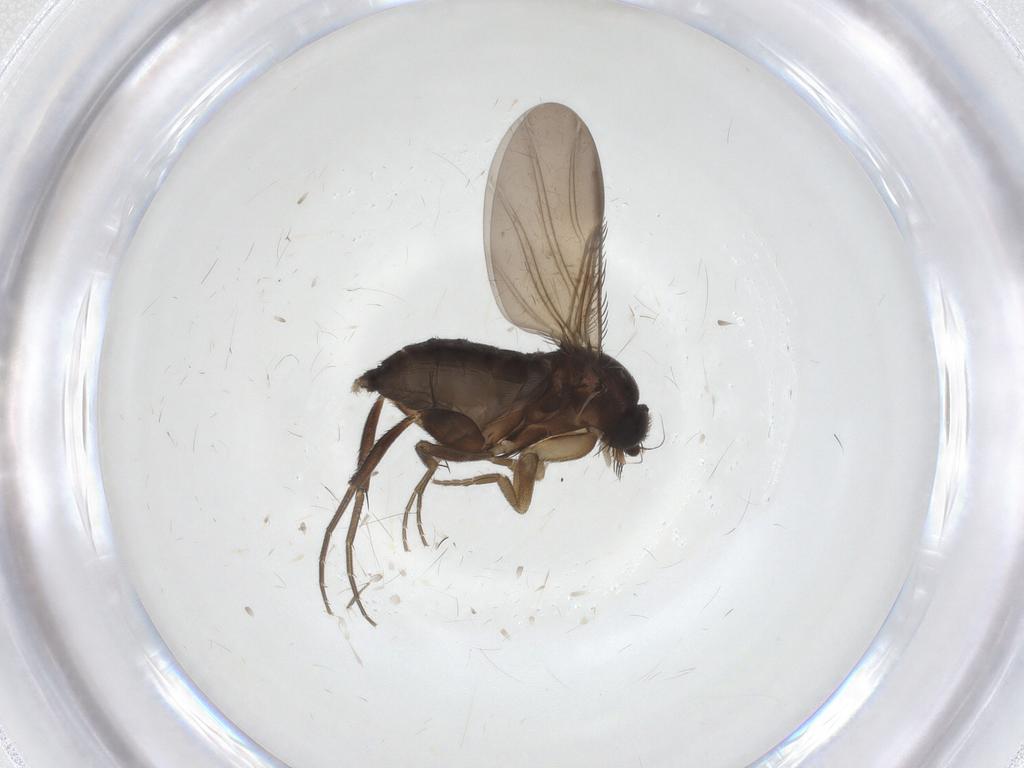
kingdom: Animalia
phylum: Arthropoda
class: Insecta
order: Diptera
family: Phoridae
